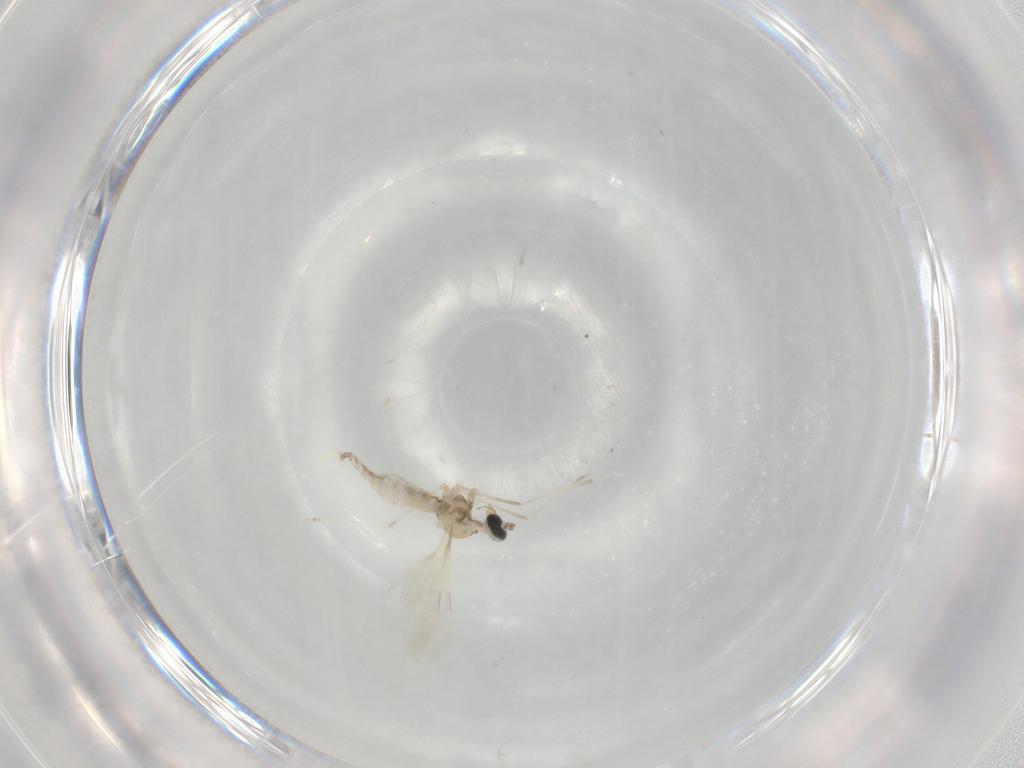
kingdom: Animalia
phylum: Arthropoda
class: Insecta
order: Diptera
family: Cecidomyiidae
